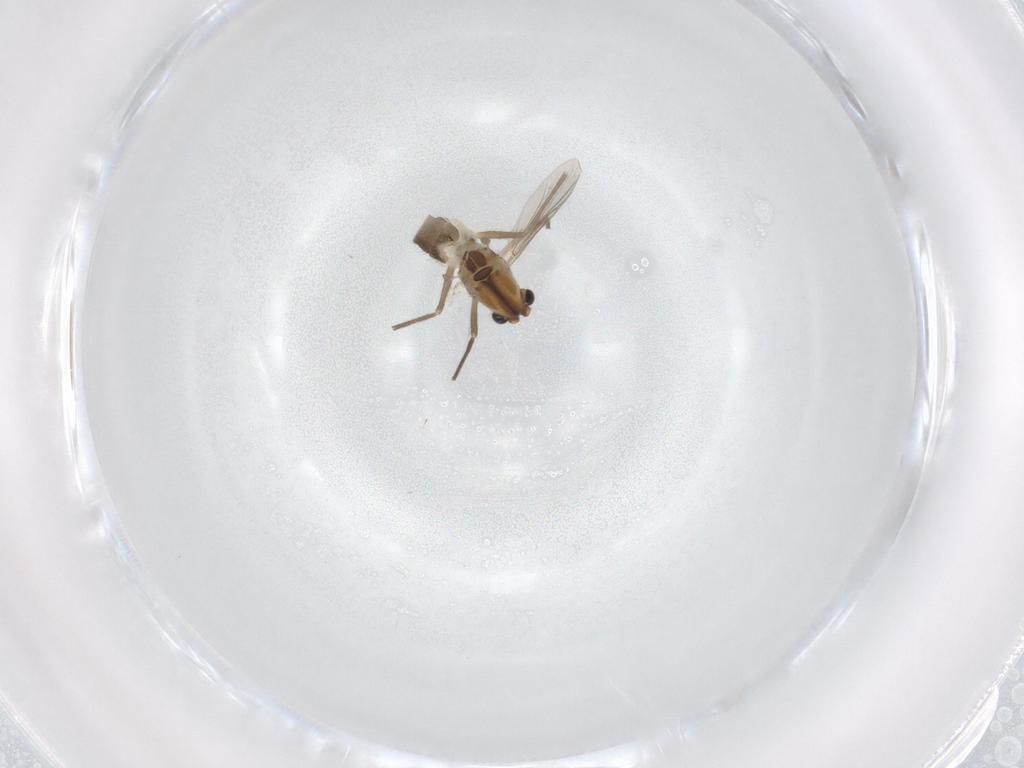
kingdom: Animalia
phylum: Arthropoda
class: Insecta
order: Diptera
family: Chironomidae
